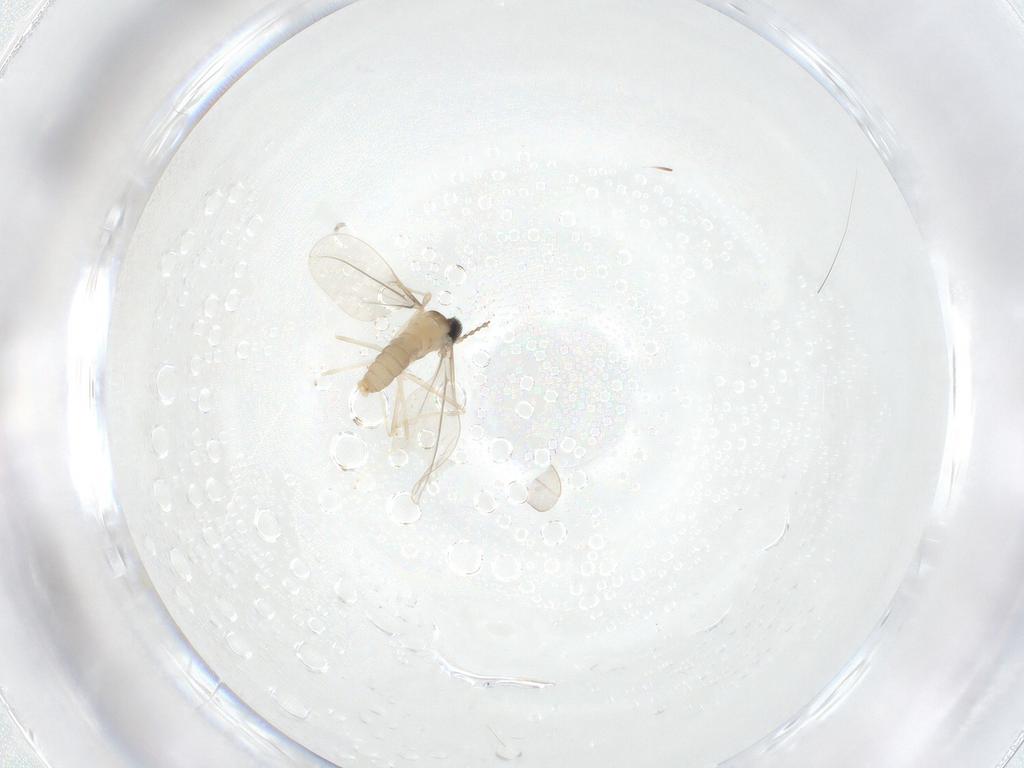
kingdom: Animalia
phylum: Arthropoda
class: Insecta
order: Diptera
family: Cecidomyiidae
